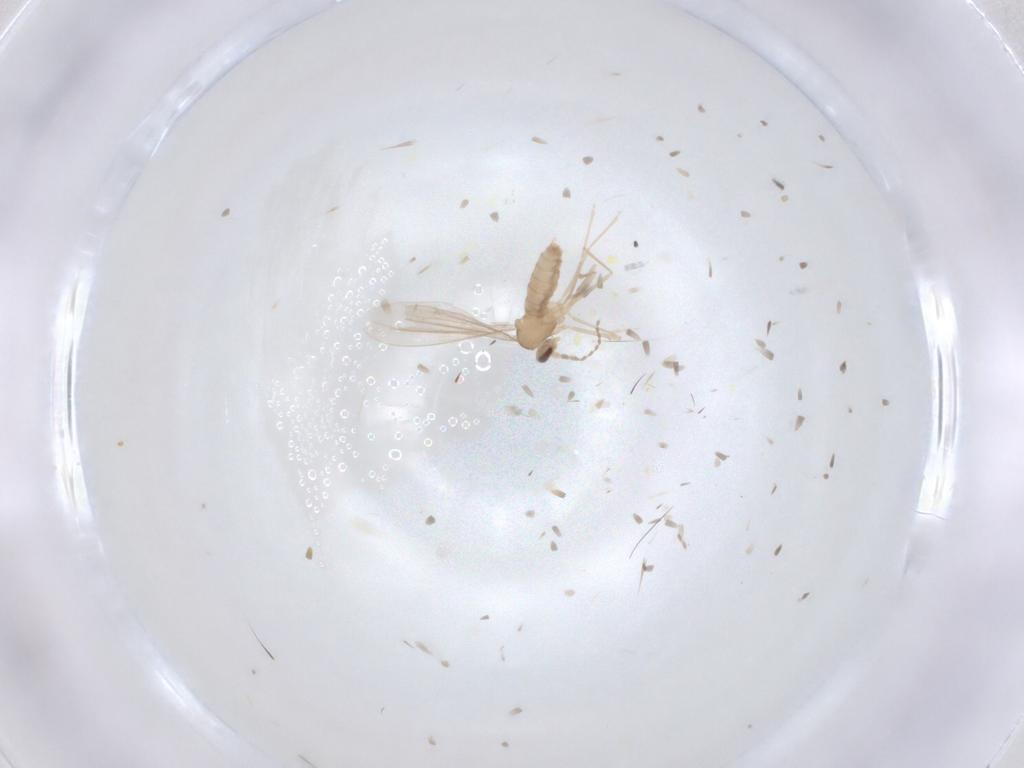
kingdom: Animalia
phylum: Arthropoda
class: Insecta
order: Diptera
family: Cecidomyiidae
